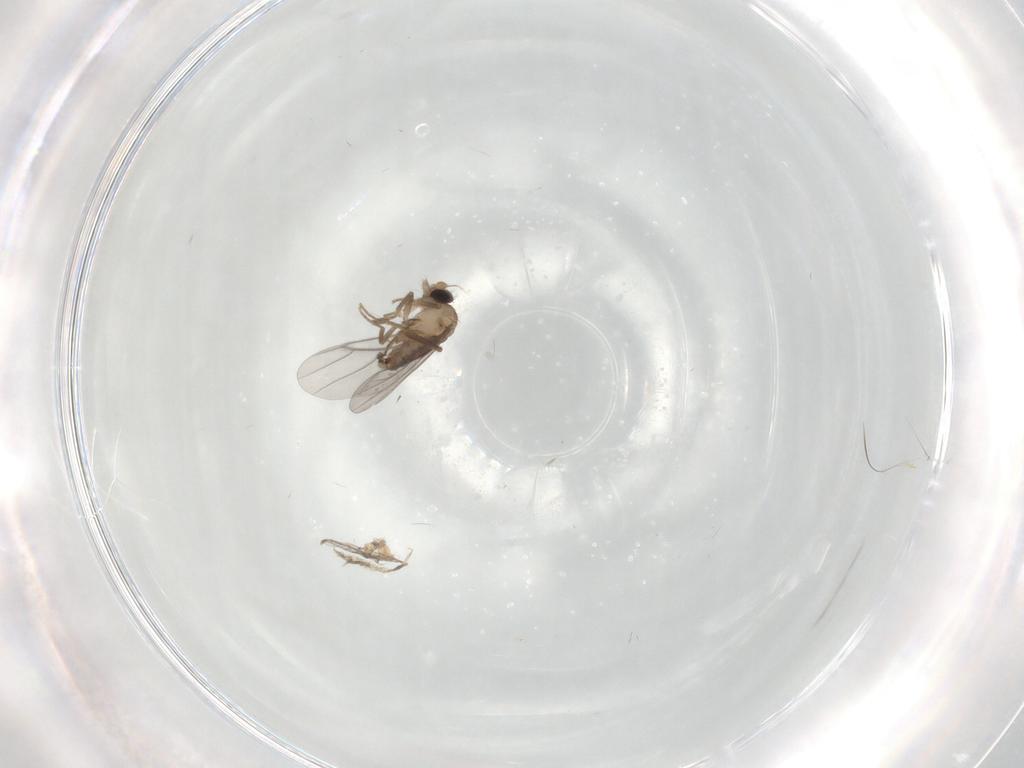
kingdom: Animalia
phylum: Arthropoda
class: Insecta
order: Diptera
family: Chironomidae
